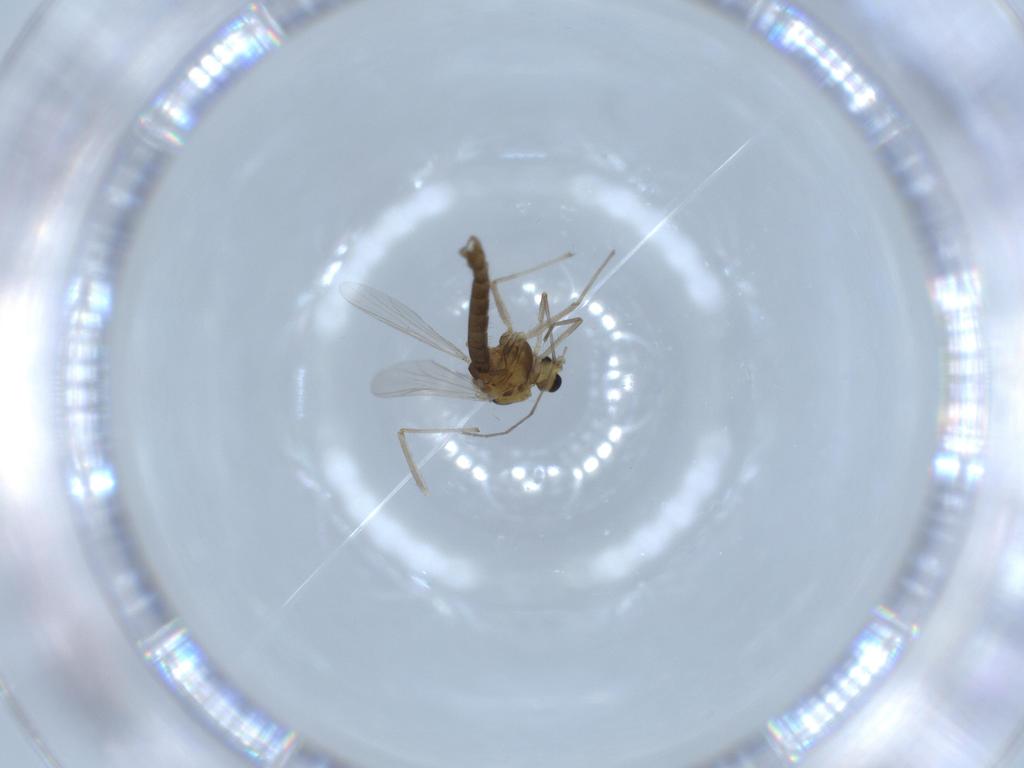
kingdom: Animalia
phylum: Arthropoda
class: Insecta
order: Diptera
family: Chironomidae
